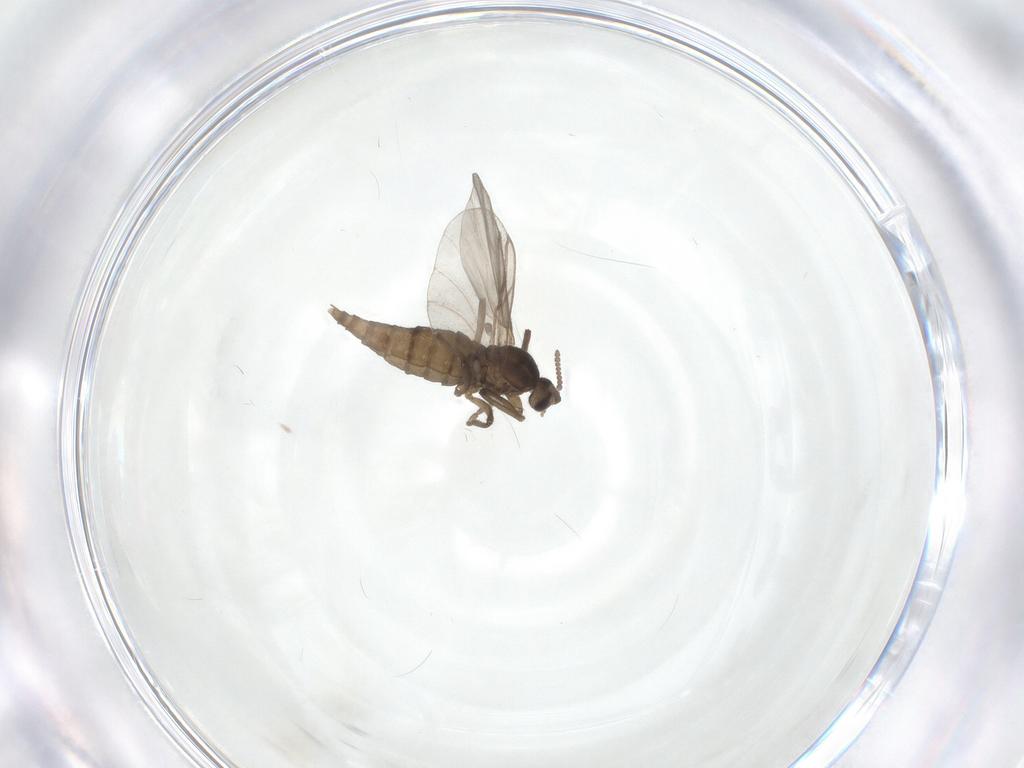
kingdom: Animalia
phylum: Arthropoda
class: Insecta
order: Diptera
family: Cecidomyiidae
